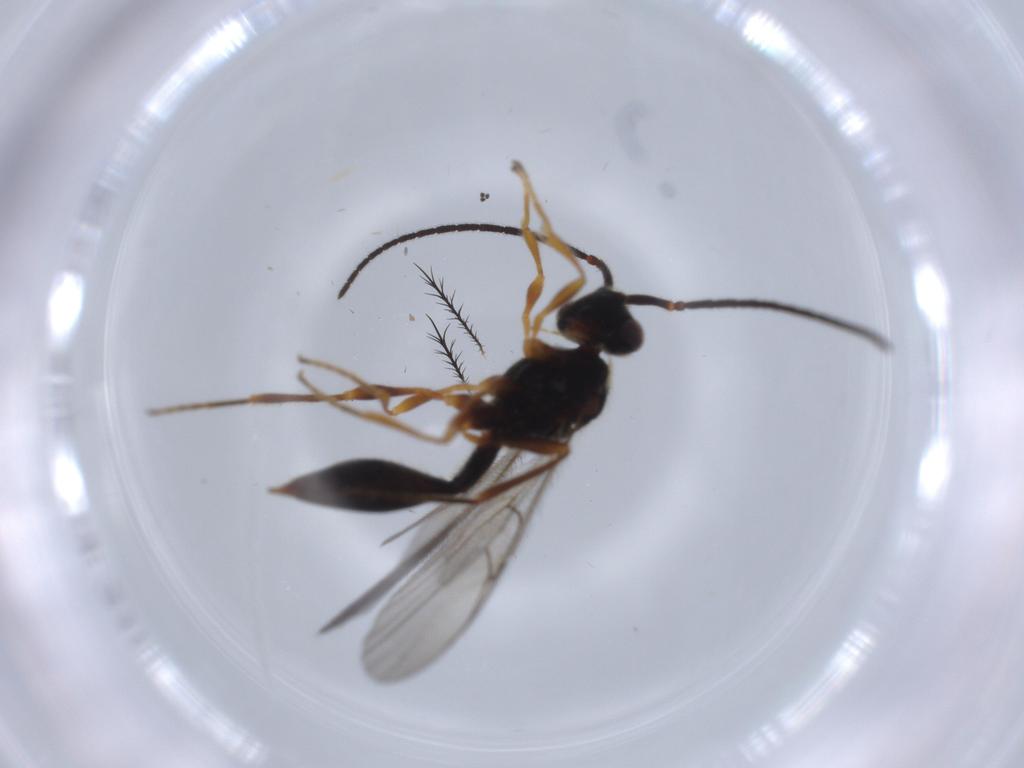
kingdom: Animalia
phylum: Arthropoda
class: Insecta
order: Hymenoptera
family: Diapriidae
